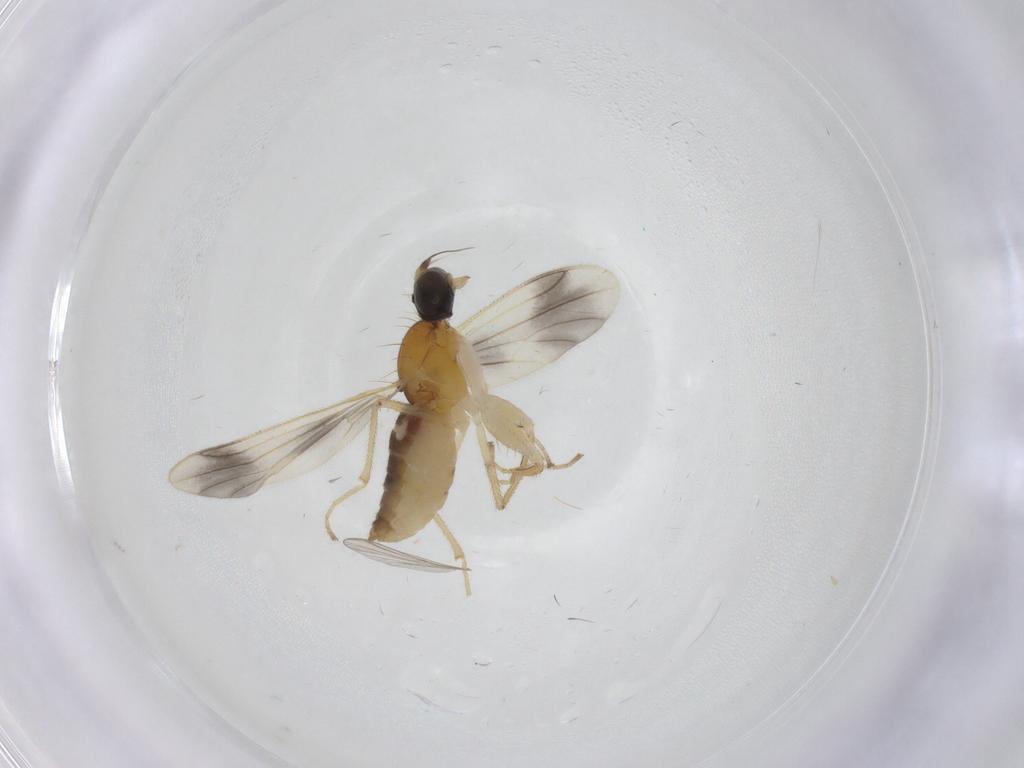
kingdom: Animalia
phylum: Arthropoda
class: Insecta
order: Diptera
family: Empididae
